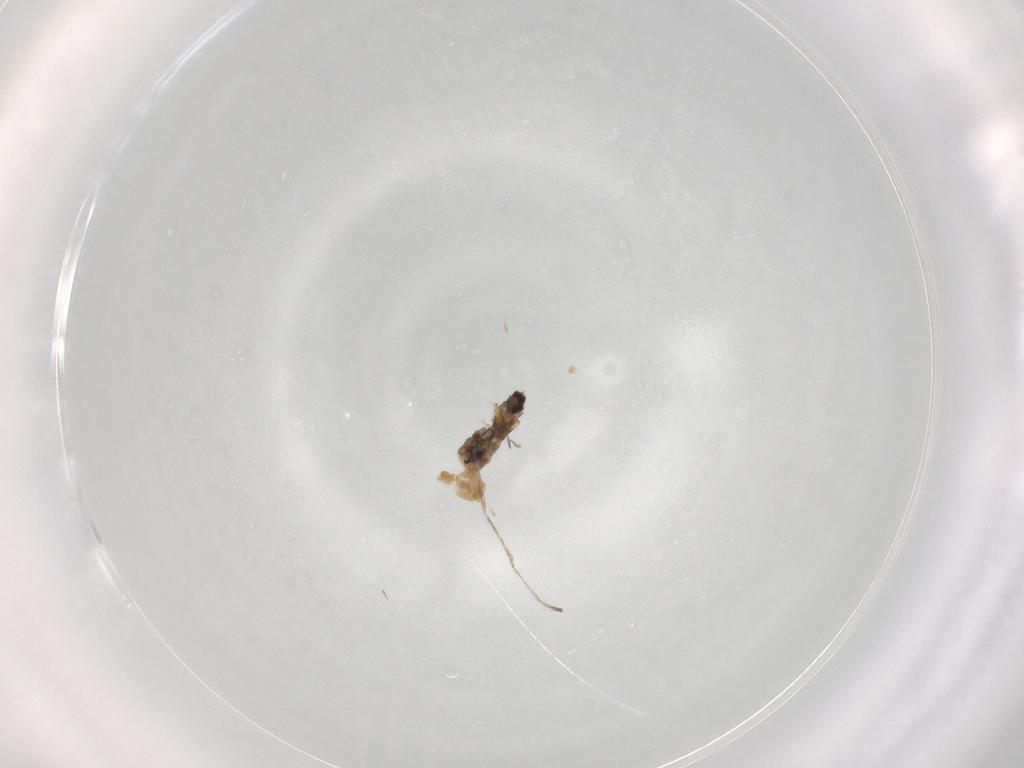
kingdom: Animalia
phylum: Arthropoda
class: Insecta
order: Diptera
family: Cecidomyiidae
